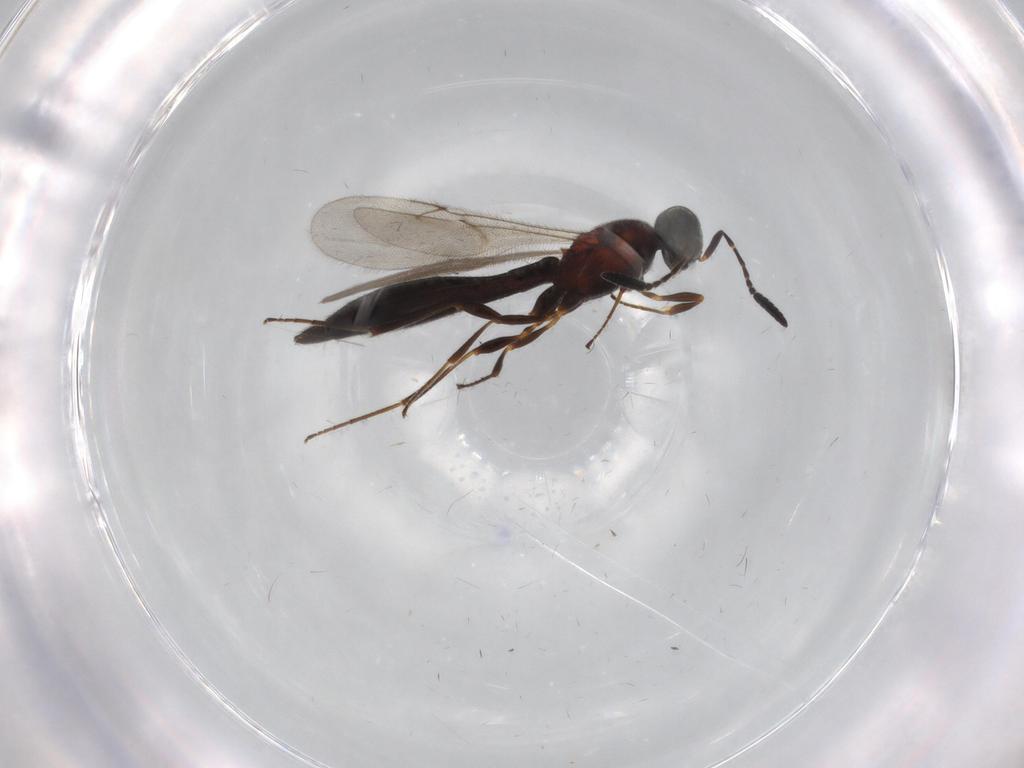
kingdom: Animalia
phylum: Arthropoda
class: Insecta
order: Hymenoptera
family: Scelionidae
